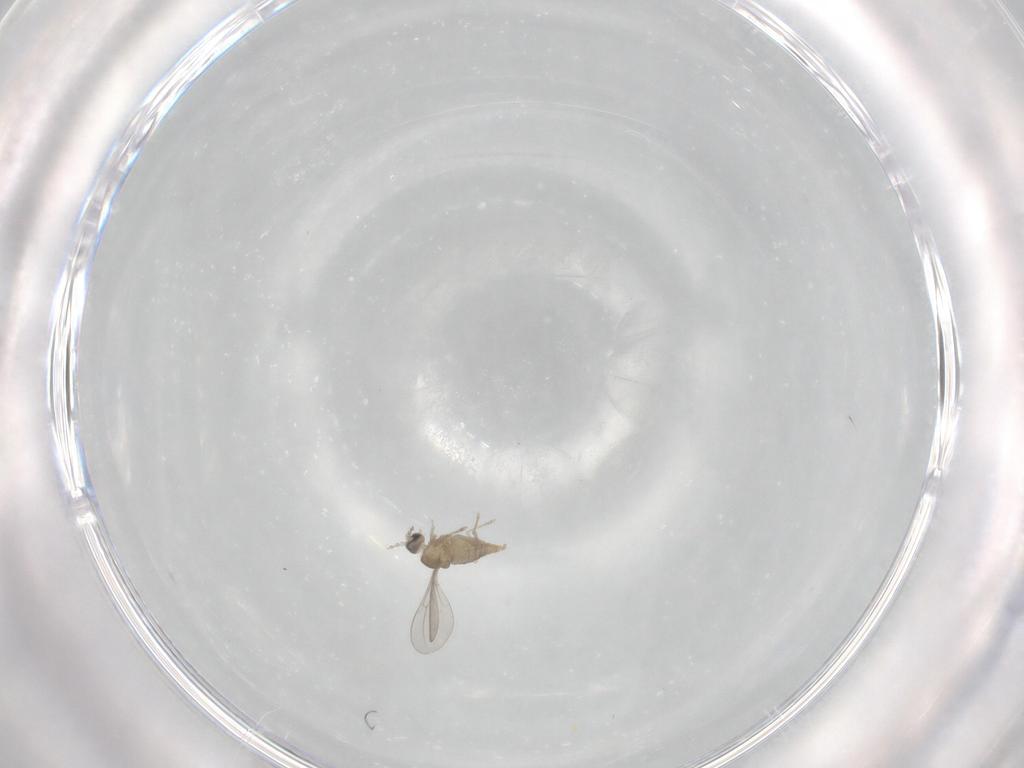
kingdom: Animalia
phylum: Arthropoda
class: Insecta
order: Diptera
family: Cecidomyiidae
